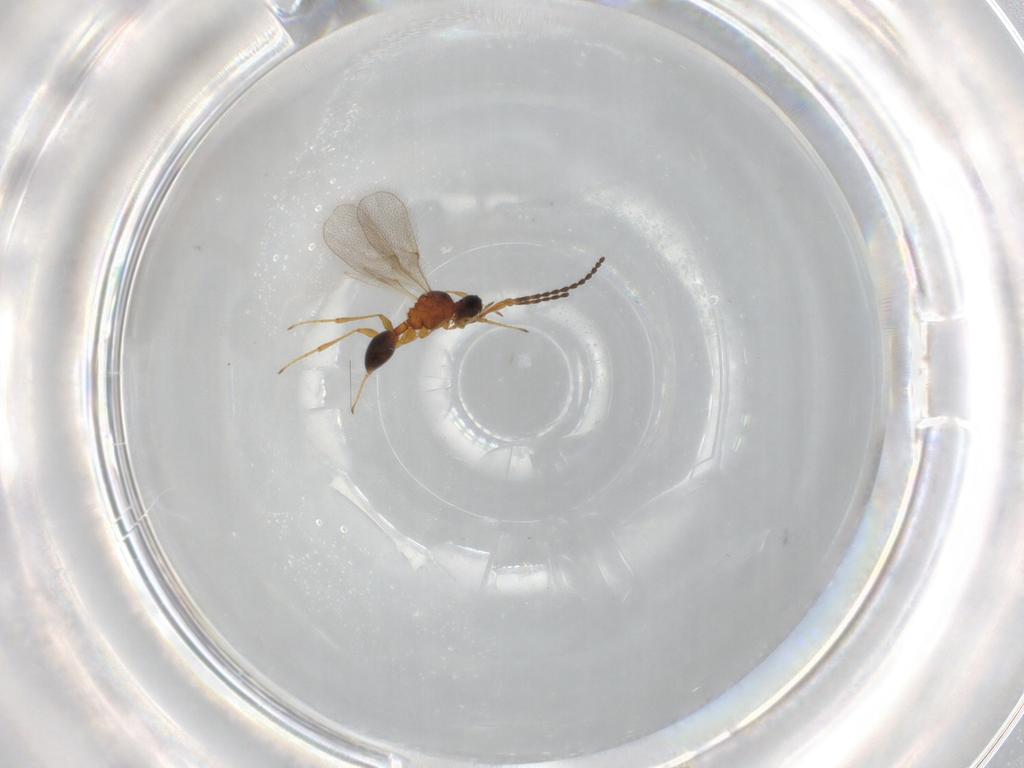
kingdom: Animalia
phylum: Arthropoda
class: Insecta
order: Hymenoptera
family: Diapriidae
